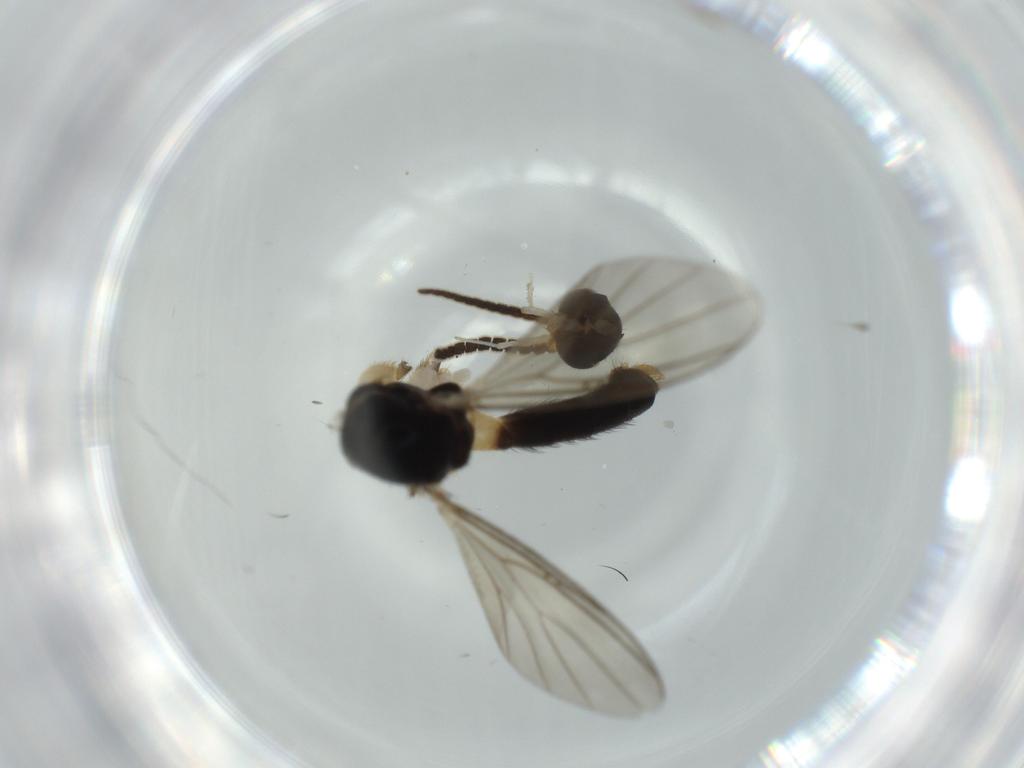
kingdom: Animalia
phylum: Arthropoda
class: Insecta
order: Diptera
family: Sciaridae
